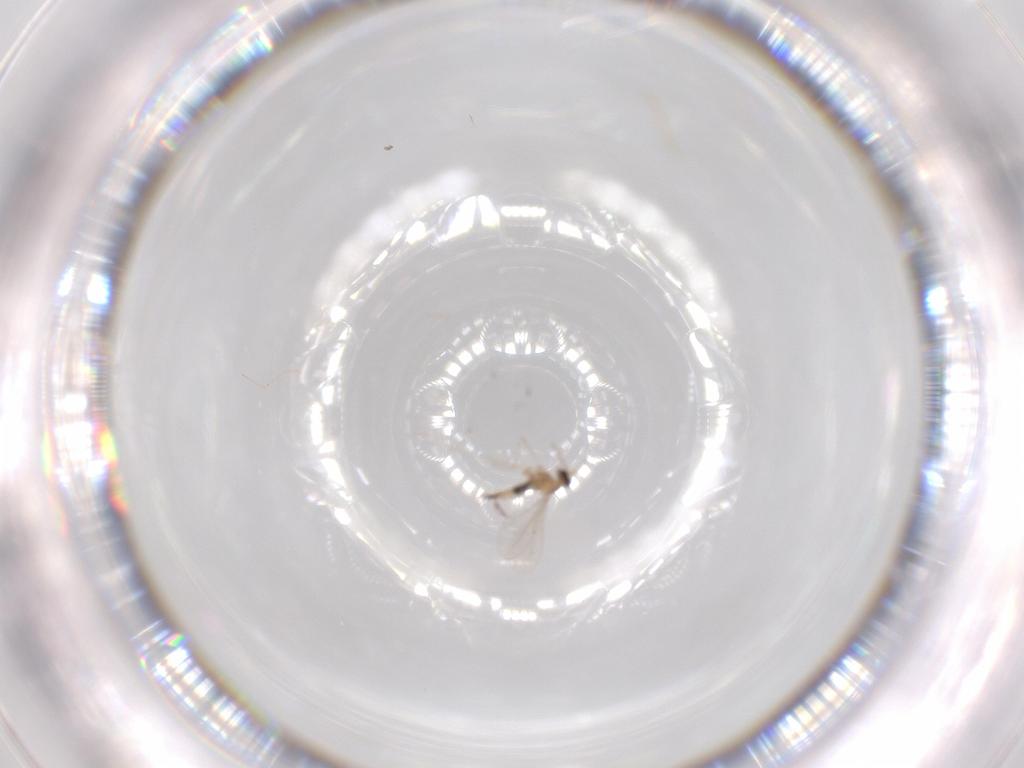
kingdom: Animalia
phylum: Arthropoda
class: Insecta
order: Diptera
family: Cecidomyiidae
